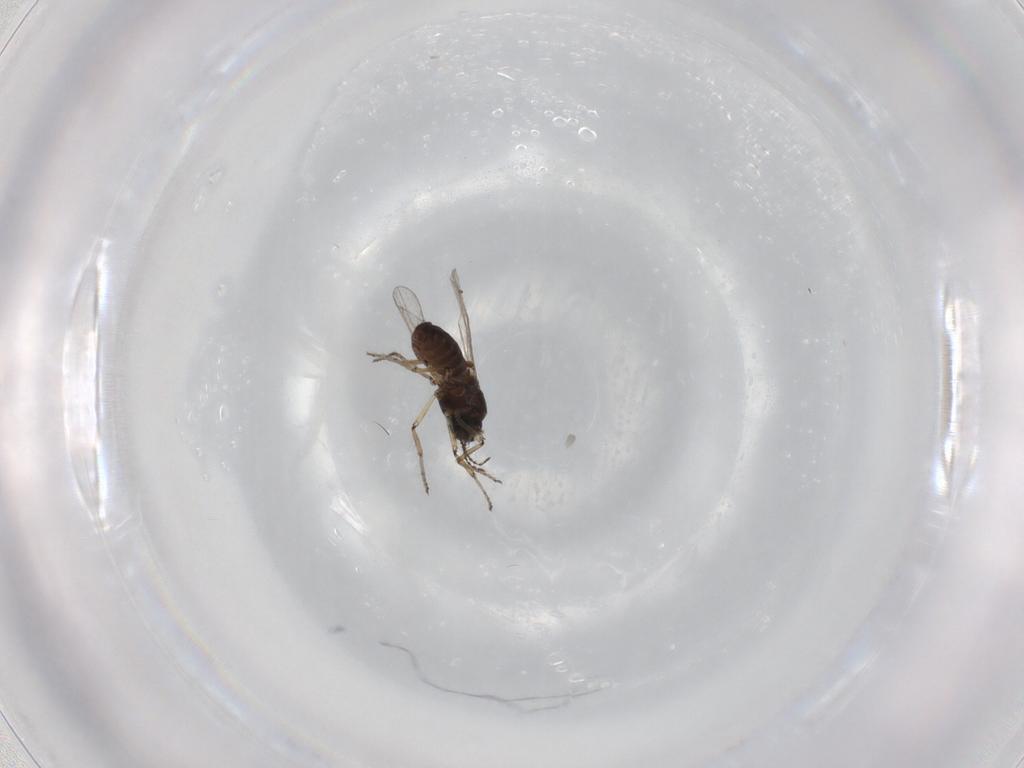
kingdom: Animalia
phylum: Arthropoda
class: Insecta
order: Diptera
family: Ceratopogonidae
